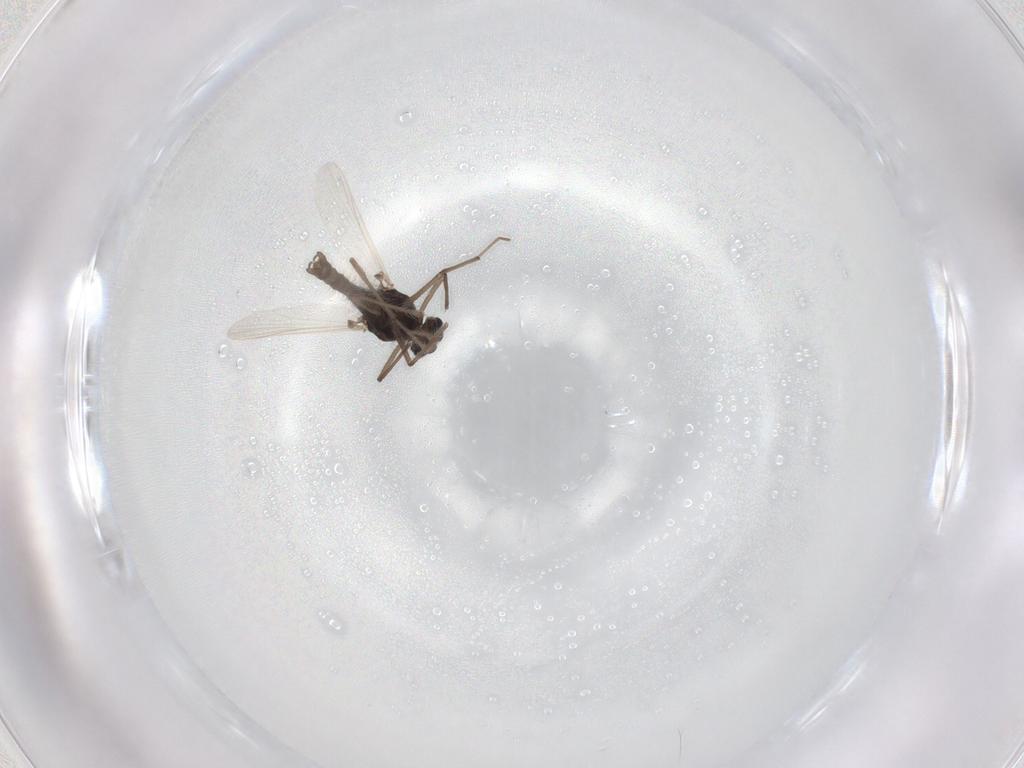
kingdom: Animalia
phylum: Arthropoda
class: Insecta
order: Diptera
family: Chironomidae
